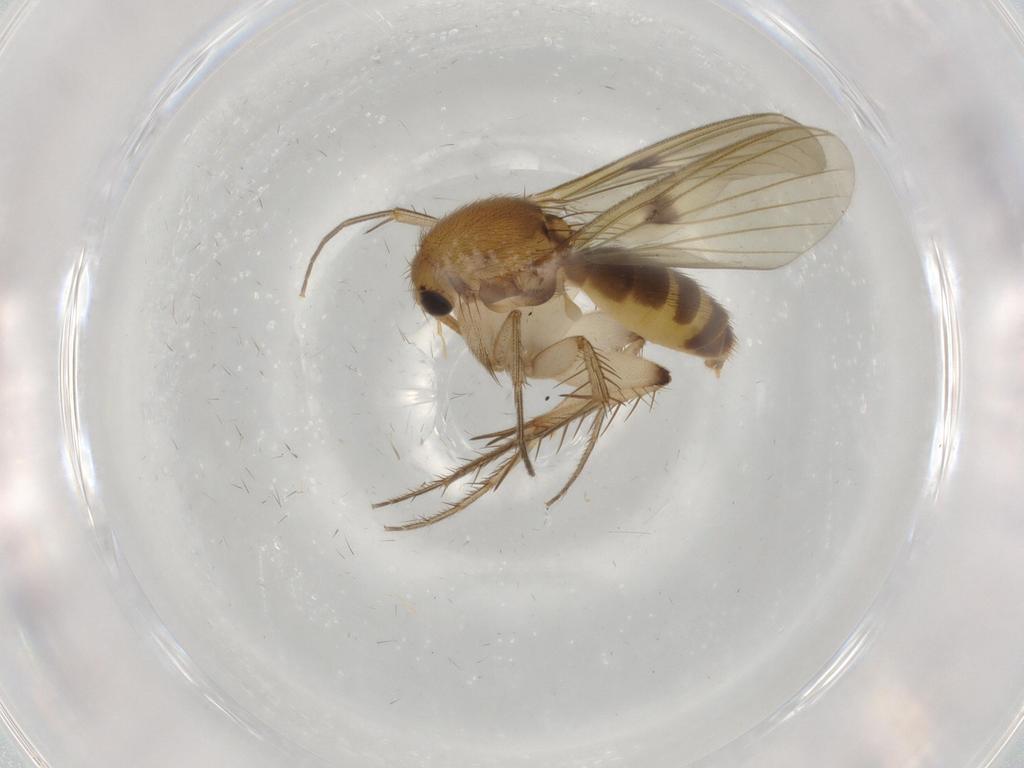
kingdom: Animalia
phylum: Arthropoda
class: Insecta
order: Diptera
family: Mycetophilidae
